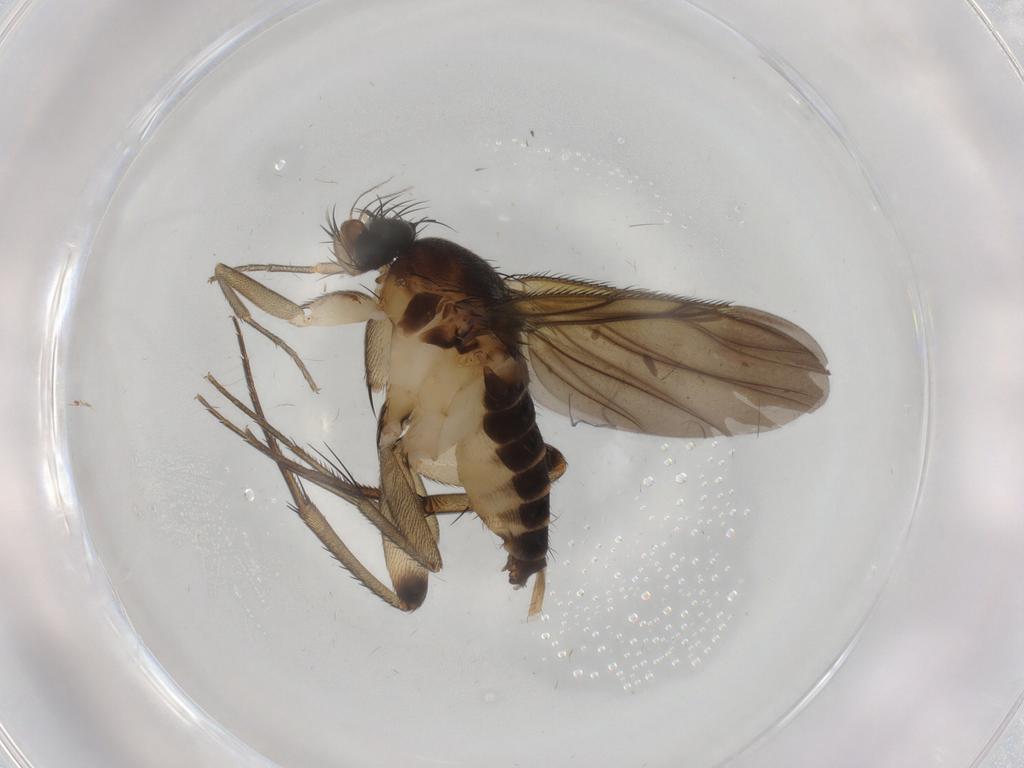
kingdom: Animalia
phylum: Arthropoda
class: Insecta
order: Diptera
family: Phoridae
